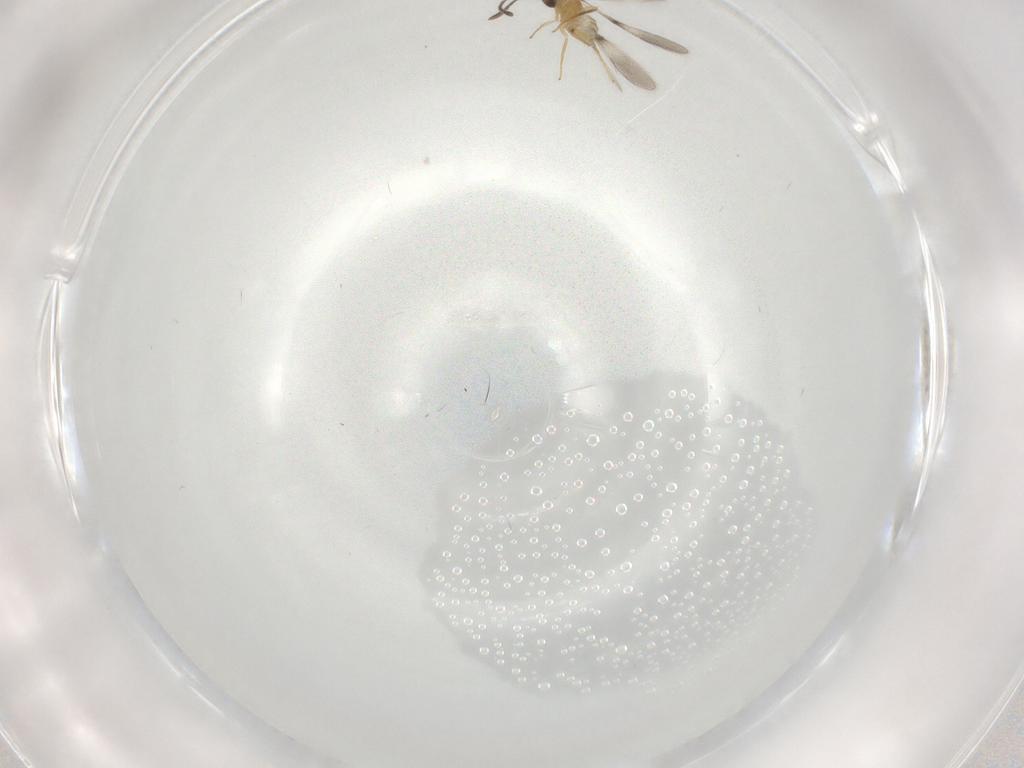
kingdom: Animalia
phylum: Arthropoda
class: Insecta
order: Hymenoptera
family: Mymaridae
